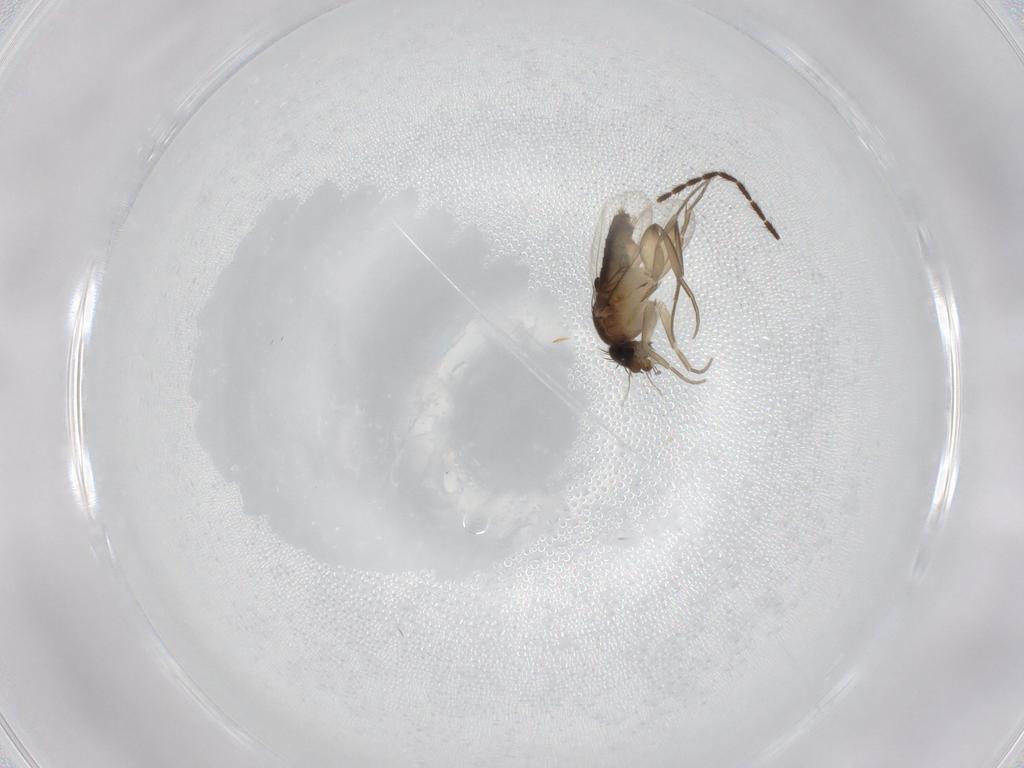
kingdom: Animalia
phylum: Arthropoda
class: Insecta
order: Diptera
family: Phoridae
